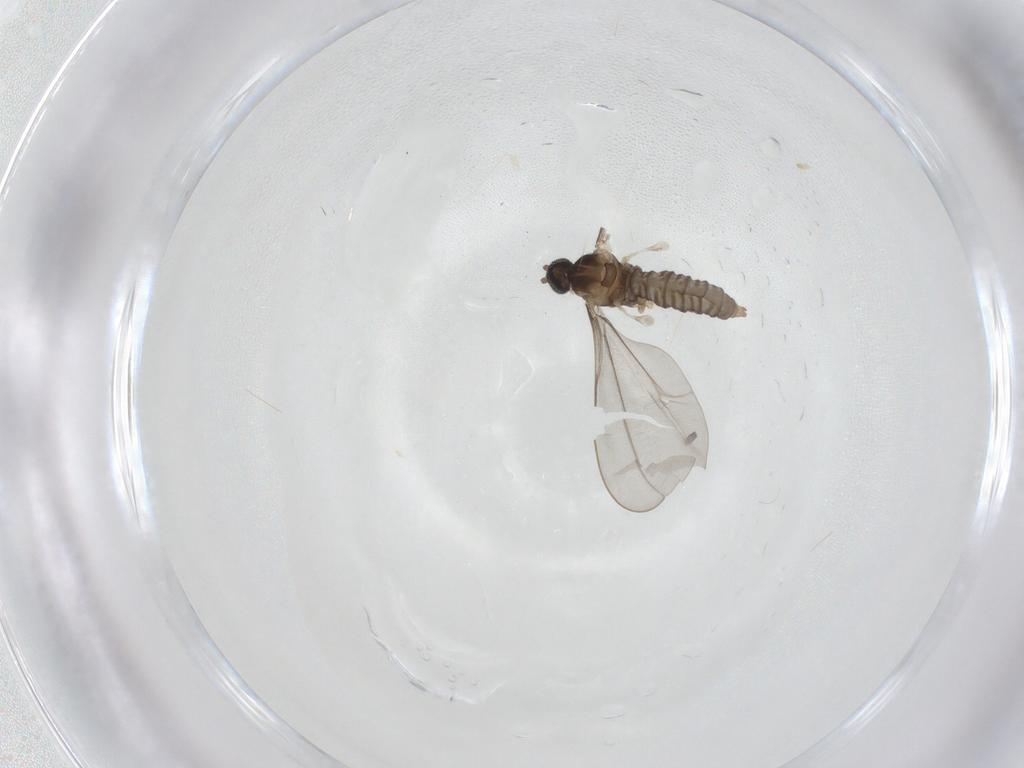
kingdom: Animalia
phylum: Arthropoda
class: Insecta
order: Diptera
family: Cecidomyiidae
